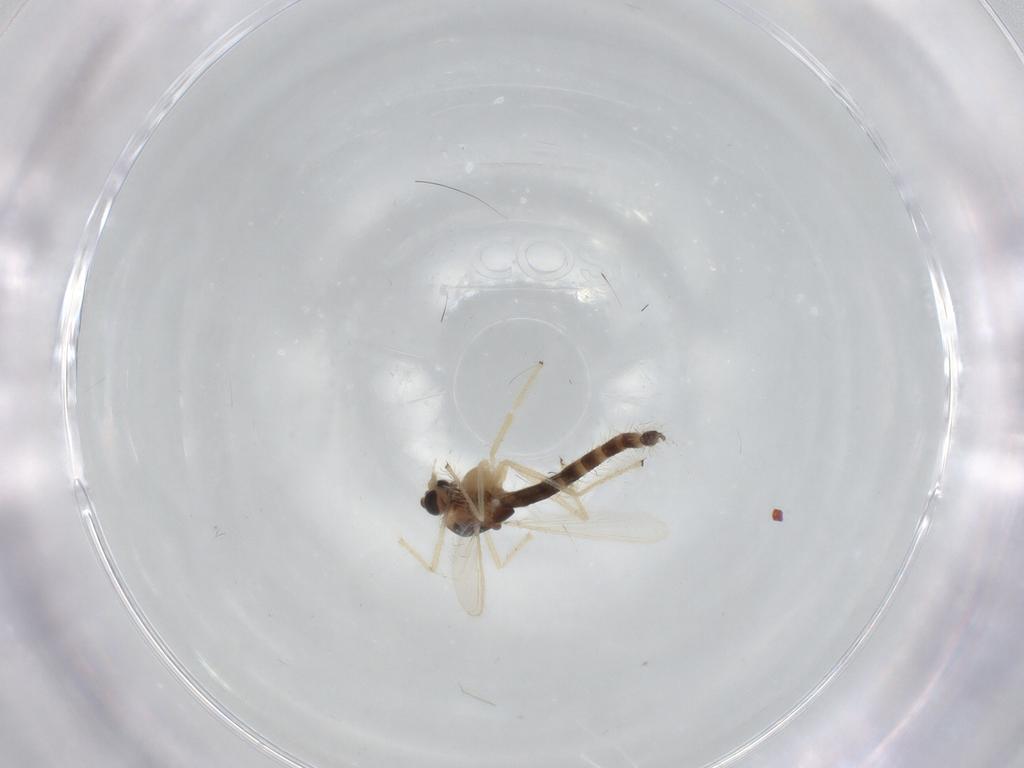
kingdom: Animalia
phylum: Arthropoda
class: Insecta
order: Diptera
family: Chironomidae
